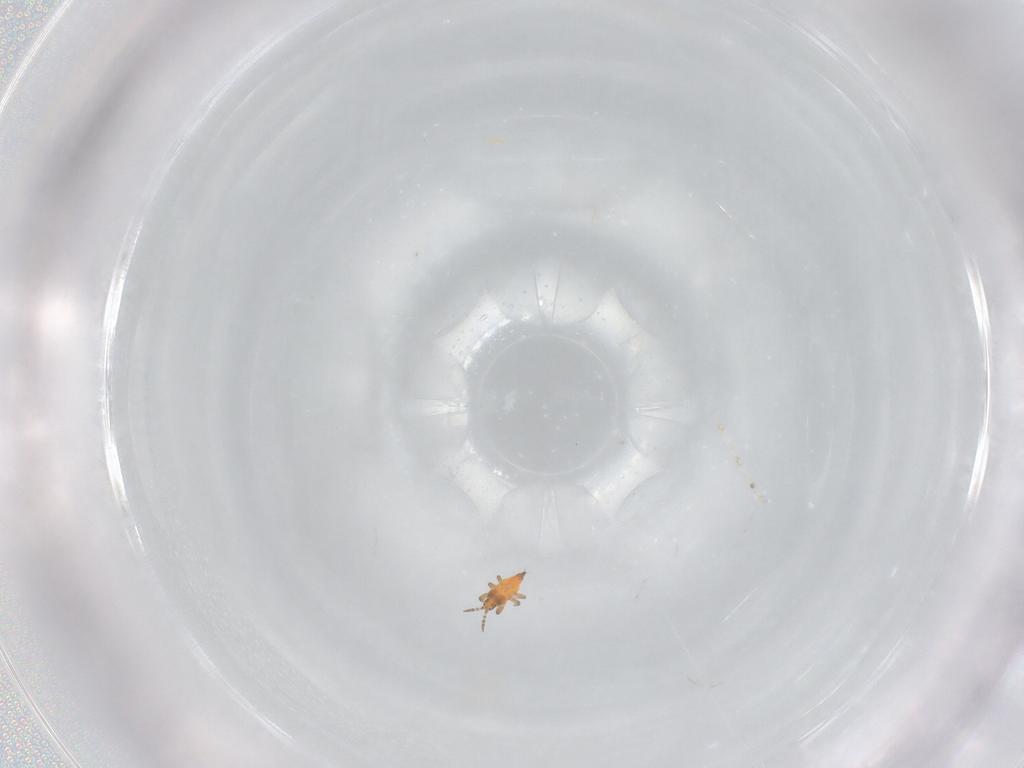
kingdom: Animalia
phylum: Arthropoda
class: Insecta
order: Thysanoptera
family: Phlaeothripidae
